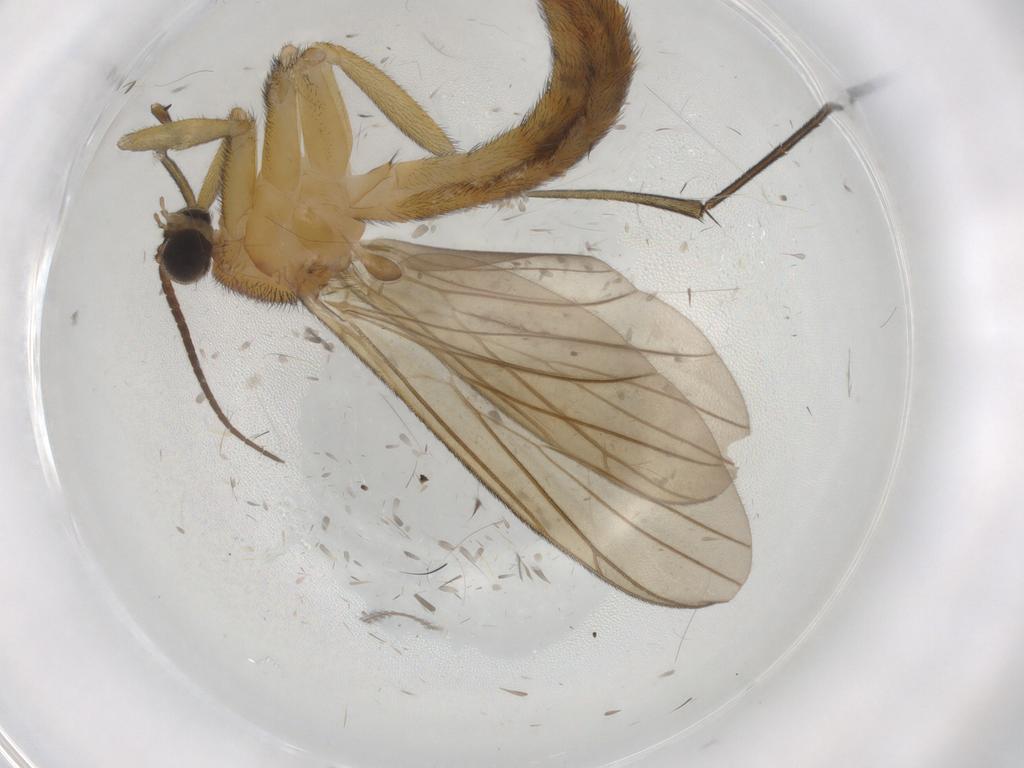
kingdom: Animalia
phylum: Arthropoda
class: Insecta
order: Diptera
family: Keroplatidae
